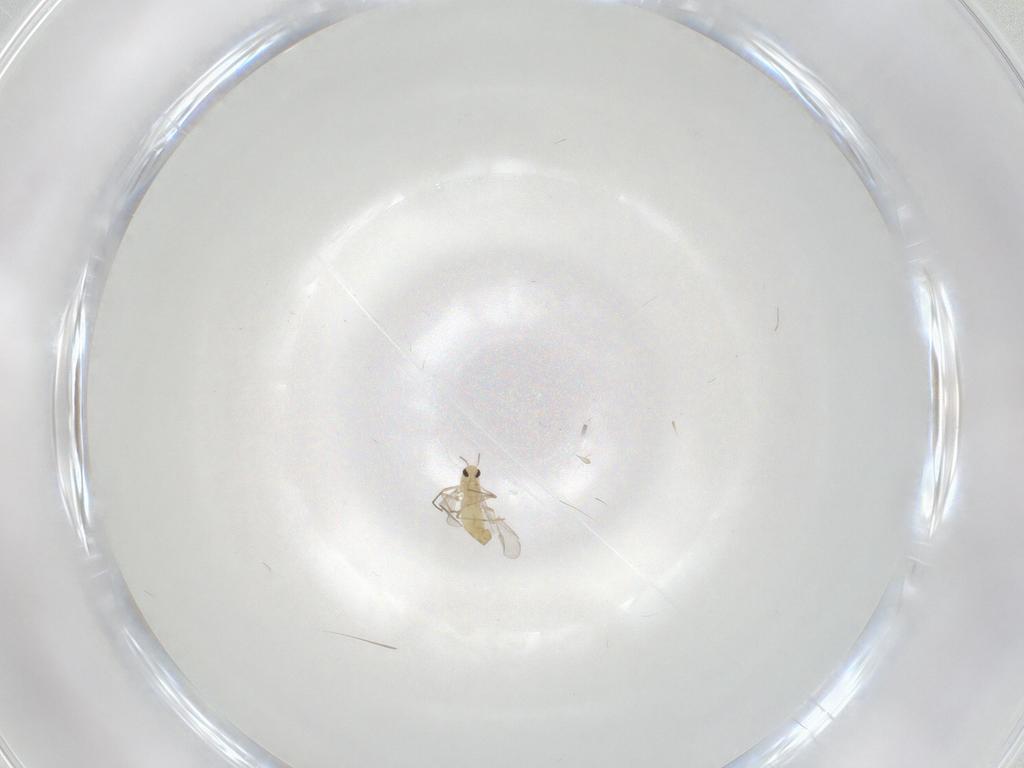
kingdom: Animalia
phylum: Arthropoda
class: Insecta
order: Diptera
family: Chironomidae
